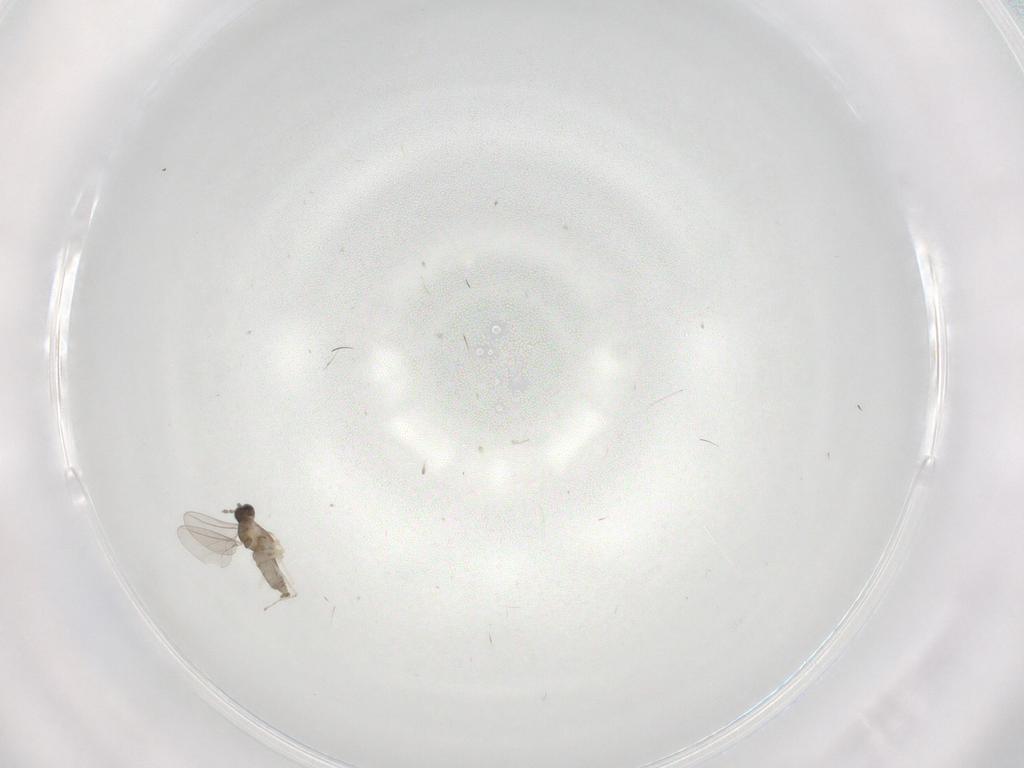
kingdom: Animalia
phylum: Arthropoda
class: Insecta
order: Diptera
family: Cecidomyiidae
